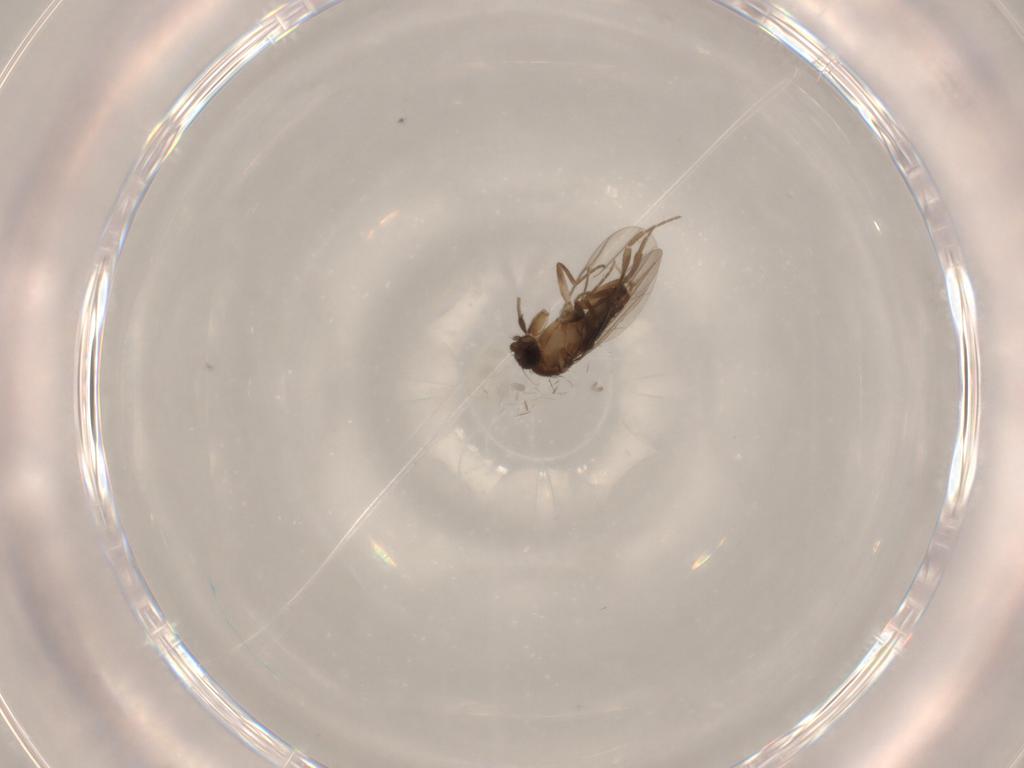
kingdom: Animalia
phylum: Arthropoda
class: Insecta
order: Diptera
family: Phoridae
